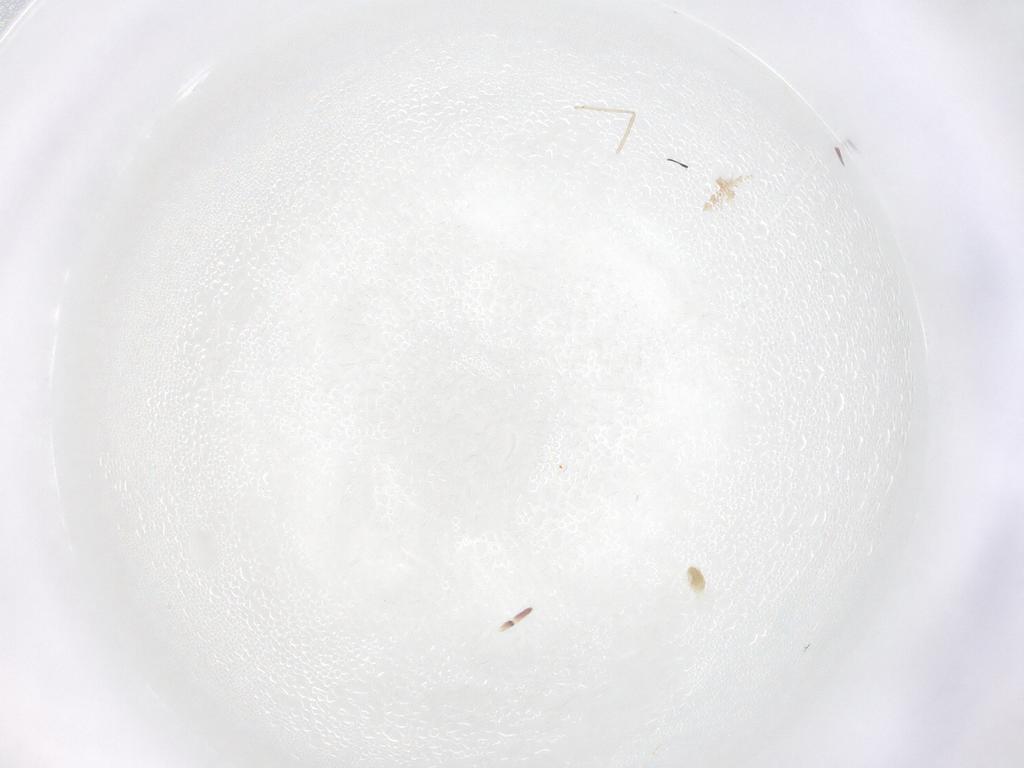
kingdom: Animalia
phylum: Arthropoda
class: Arachnida
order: Trombidiformes
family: Eupodidae
